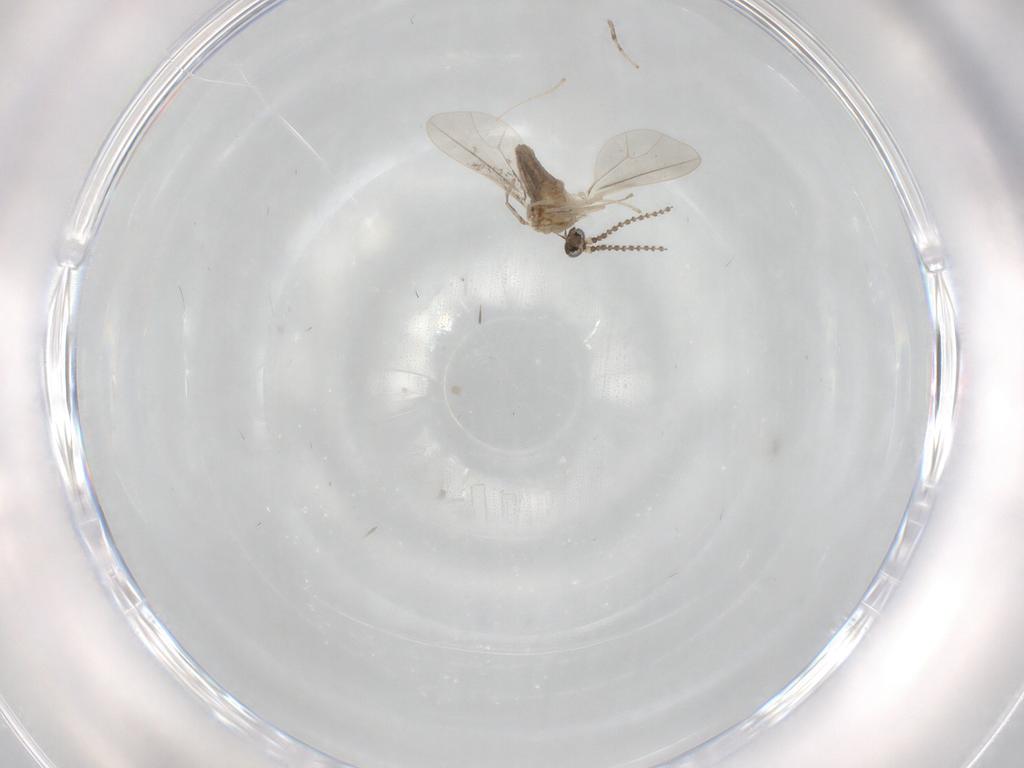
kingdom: Animalia
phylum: Arthropoda
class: Insecta
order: Diptera
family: Cecidomyiidae
